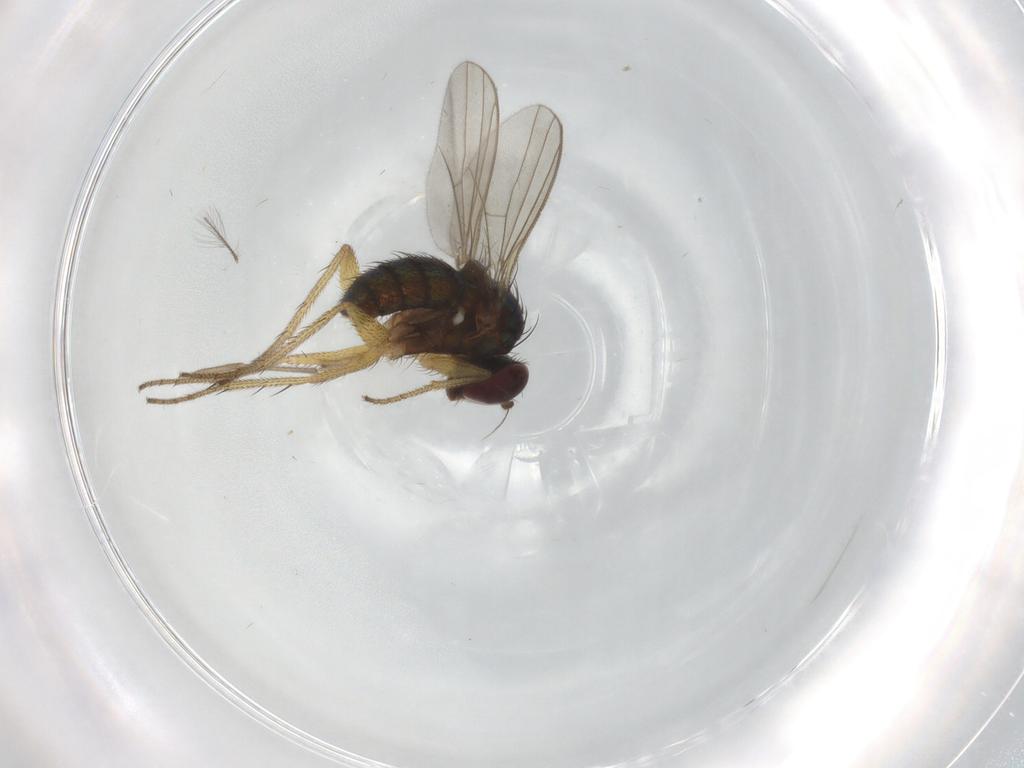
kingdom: Animalia
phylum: Arthropoda
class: Insecta
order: Diptera
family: Chironomidae
